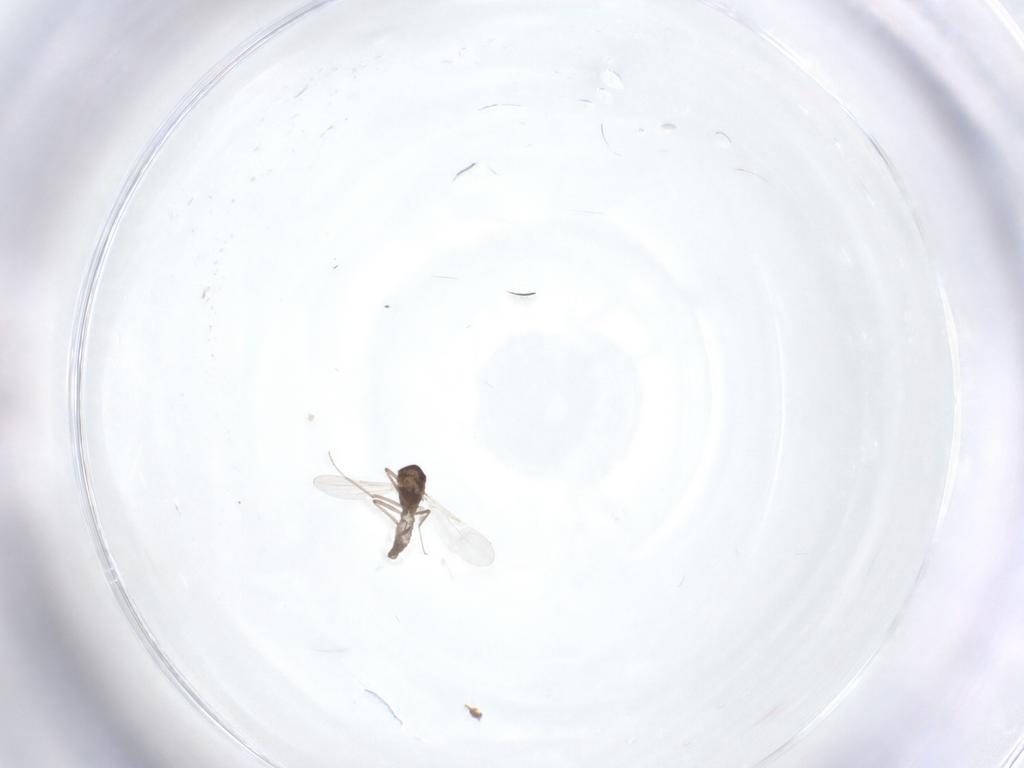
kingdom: Animalia
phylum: Arthropoda
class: Insecta
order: Diptera
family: Ceratopogonidae
